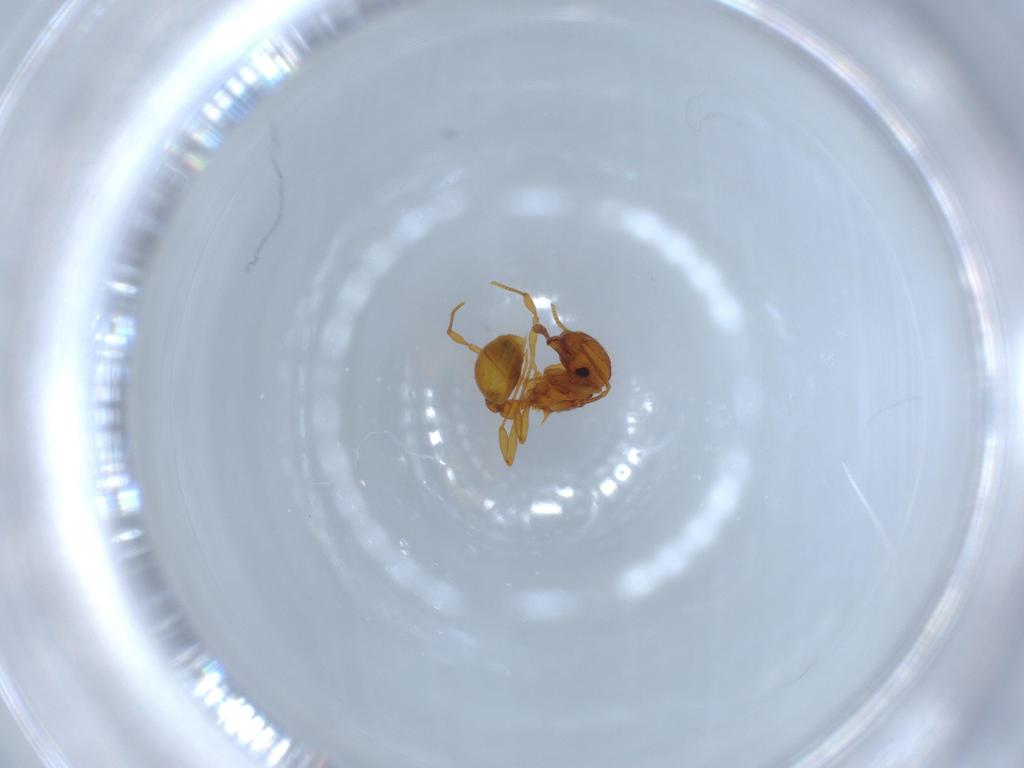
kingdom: Animalia
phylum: Arthropoda
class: Insecta
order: Hymenoptera
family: Formicidae
